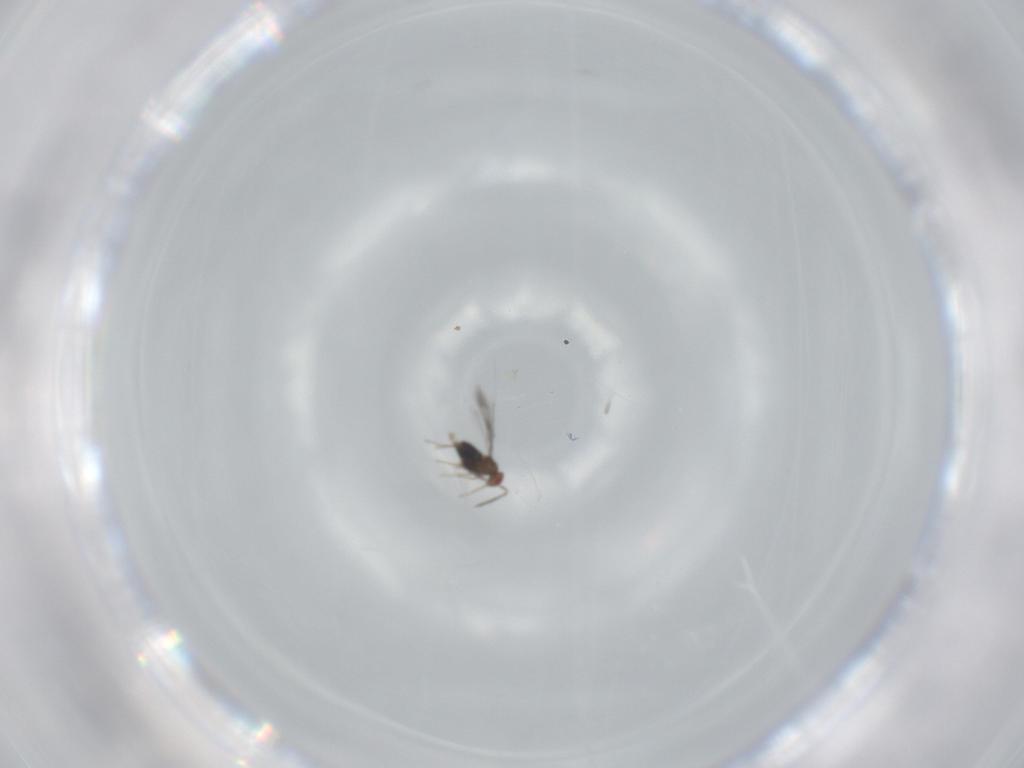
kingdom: Animalia
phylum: Arthropoda
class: Insecta
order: Hymenoptera
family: Trichogrammatidae
